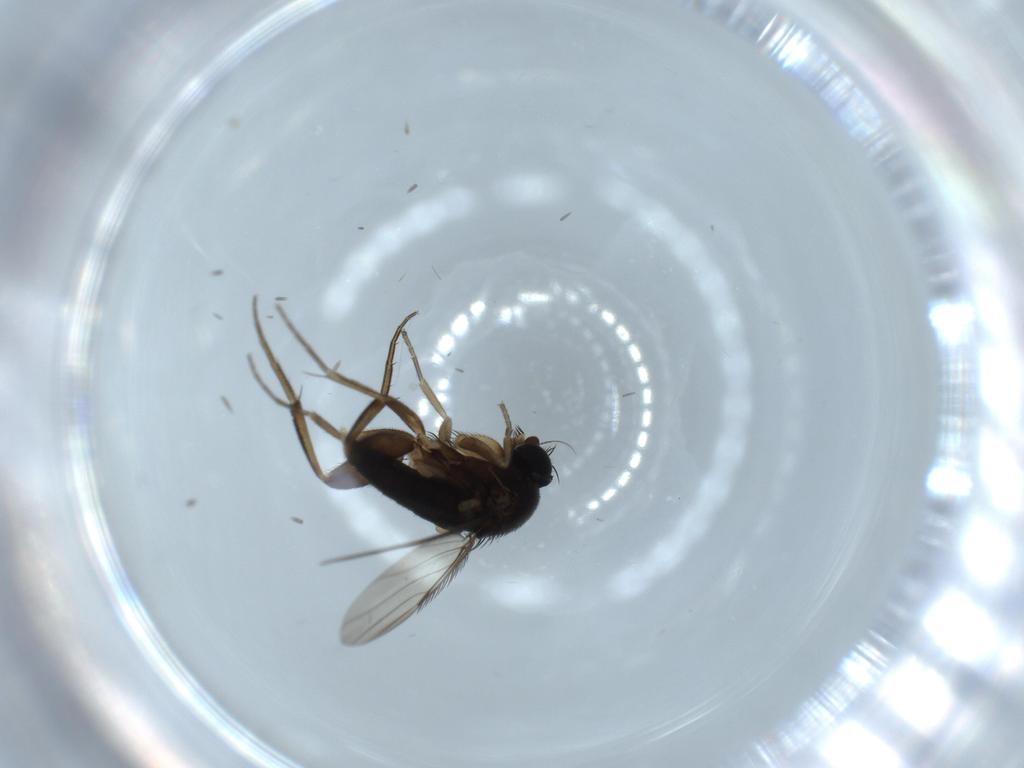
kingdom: Animalia
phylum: Arthropoda
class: Insecta
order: Diptera
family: Phoridae
